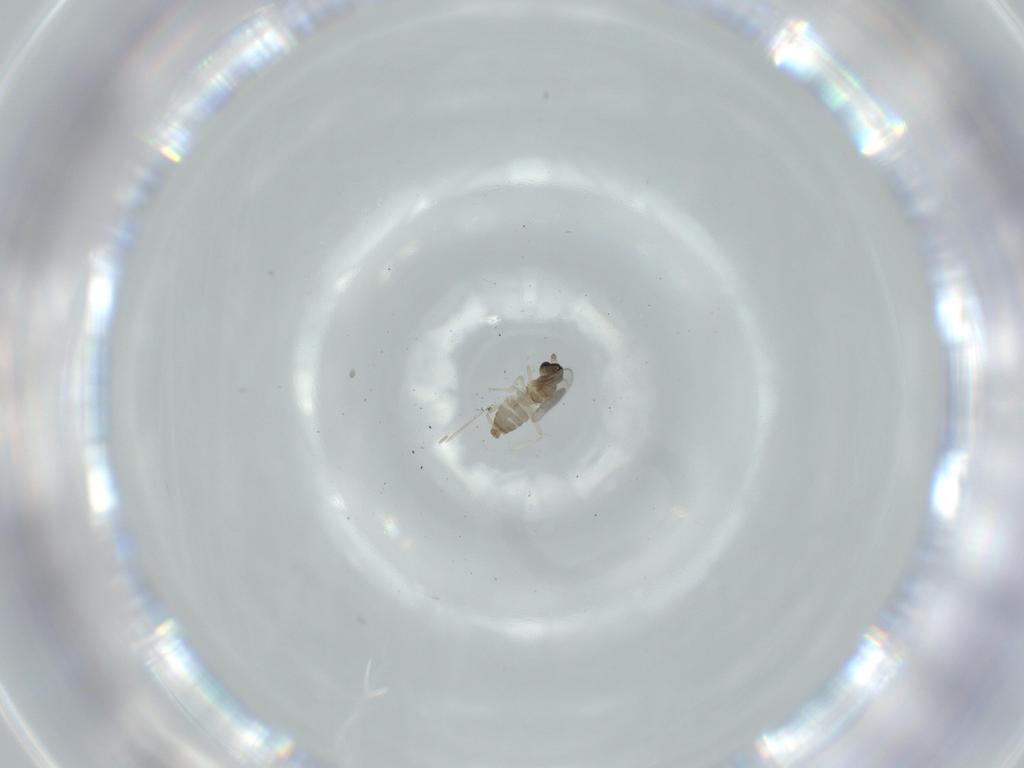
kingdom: Animalia
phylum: Arthropoda
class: Insecta
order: Diptera
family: Cecidomyiidae
